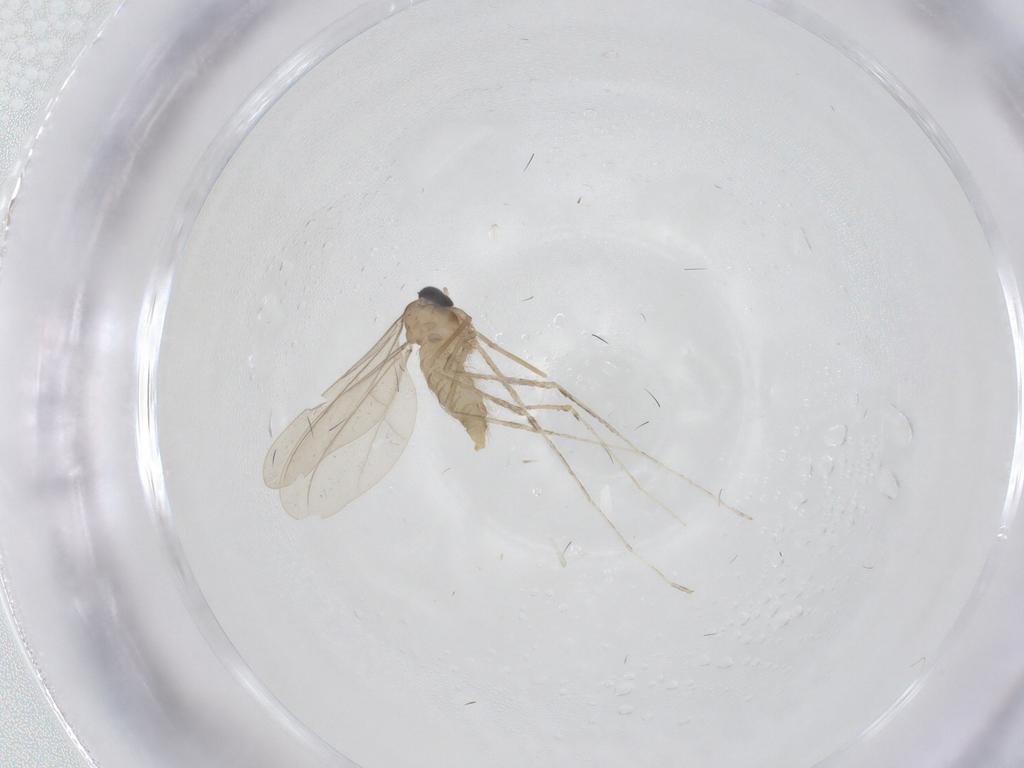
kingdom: Animalia
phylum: Arthropoda
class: Insecta
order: Diptera
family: Tabanidae
